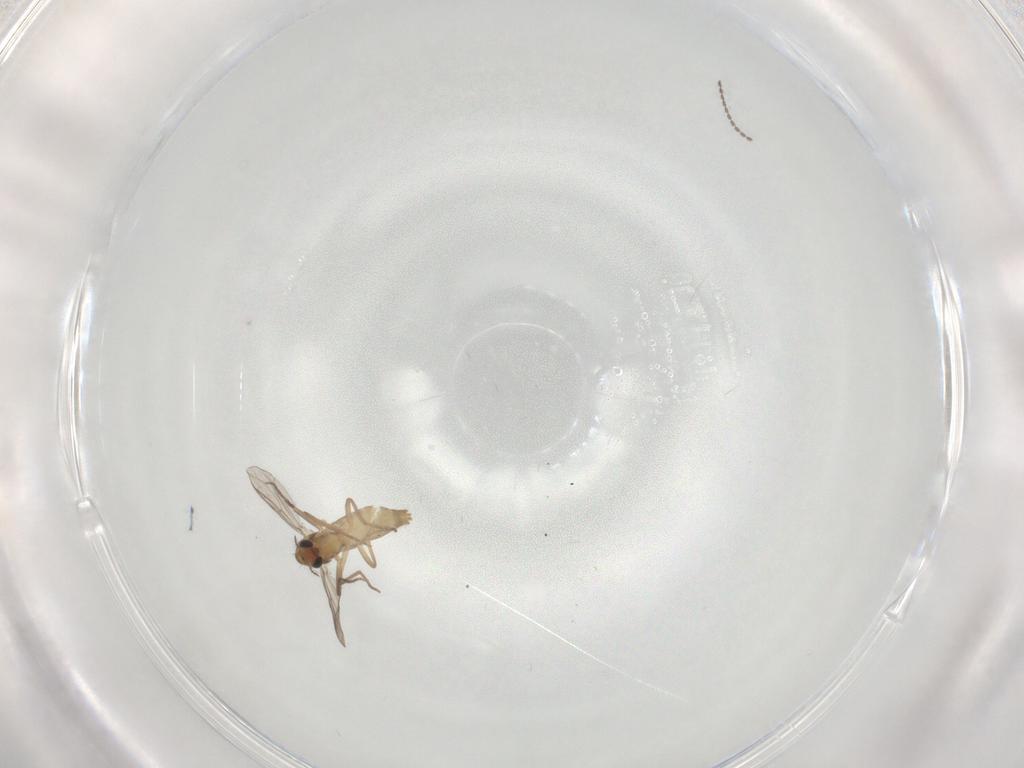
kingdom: Animalia
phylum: Arthropoda
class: Insecta
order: Diptera
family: Chironomidae
